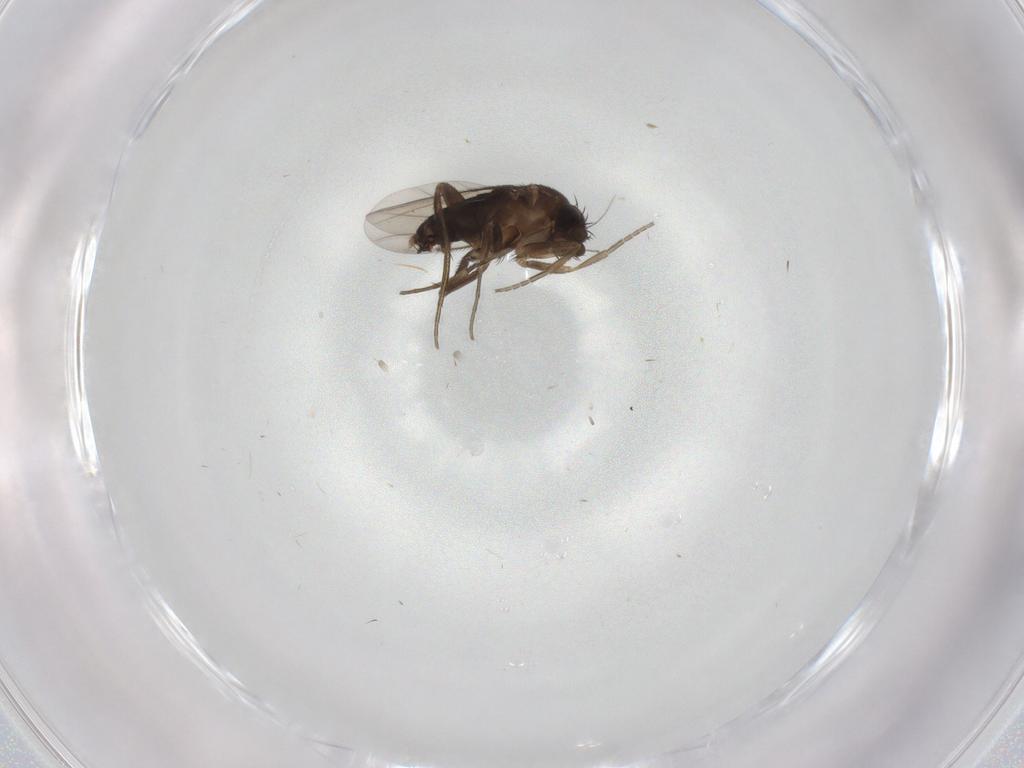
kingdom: Animalia
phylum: Arthropoda
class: Insecta
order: Diptera
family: Phoridae
